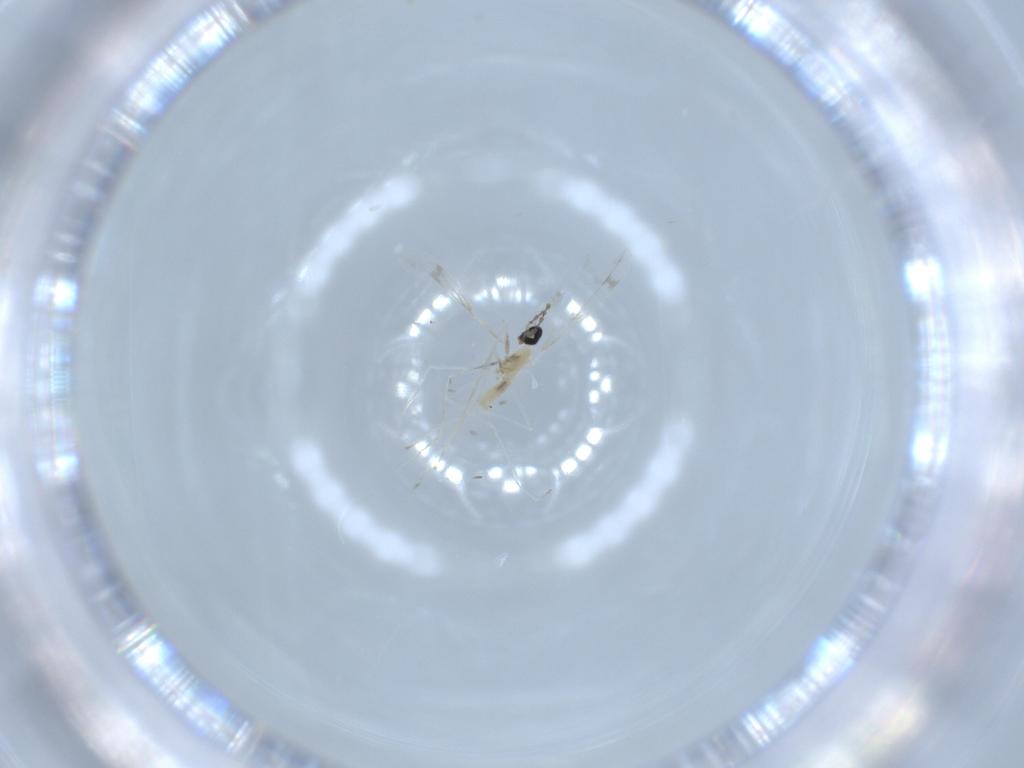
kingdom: Animalia
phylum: Arthropoda
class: Insecta
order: Diptera
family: Cecidomyiidae
